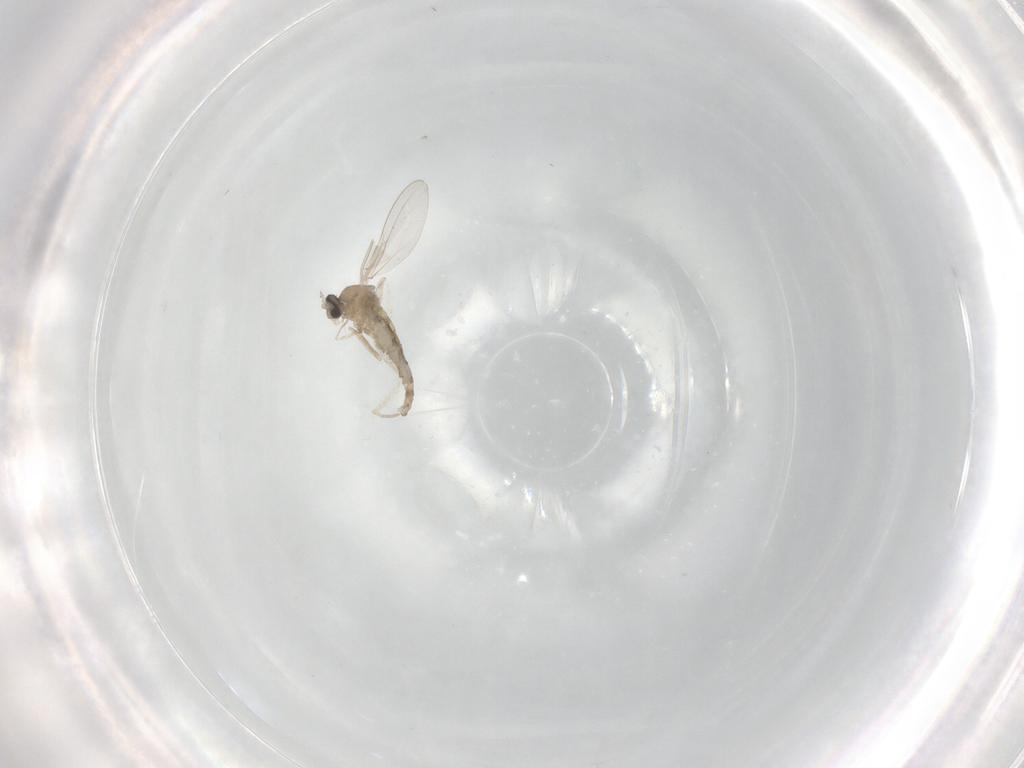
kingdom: Animalia
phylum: Arthropoda
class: Insecta
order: Diptera
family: Cecidomyiidae
